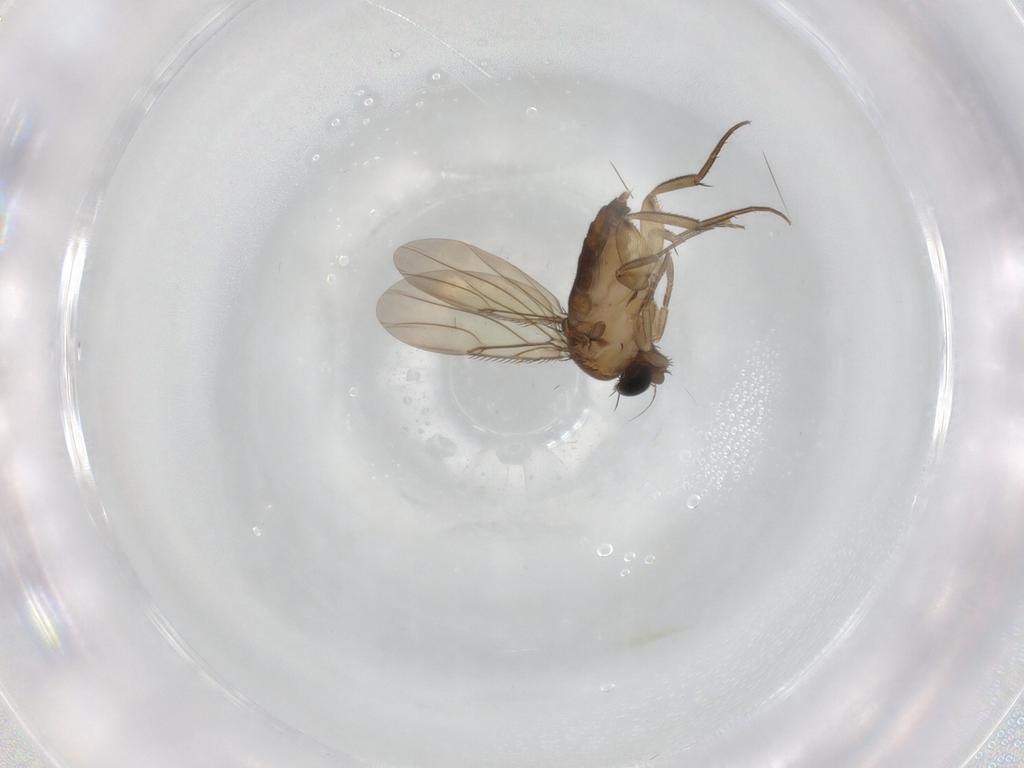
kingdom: Animalia
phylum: Arthropoda
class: Insecta
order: Diptera
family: Phoridae
